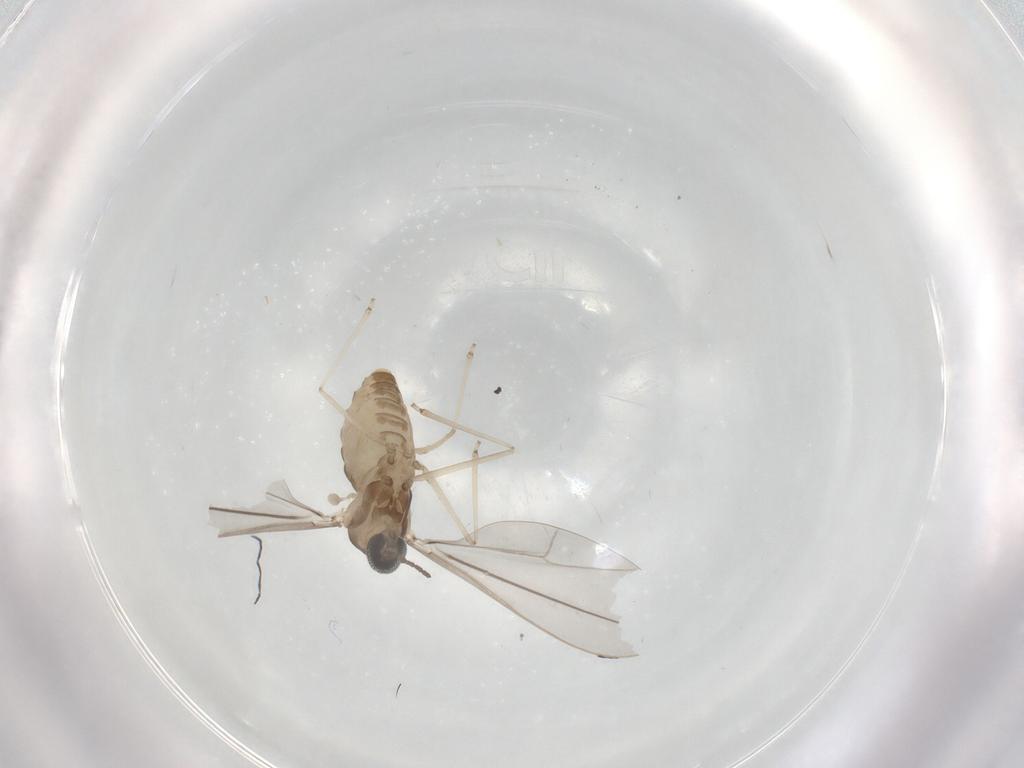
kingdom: Animalia
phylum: Arthropoda
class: Insecta
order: Diptera
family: Cecidomyiidae
